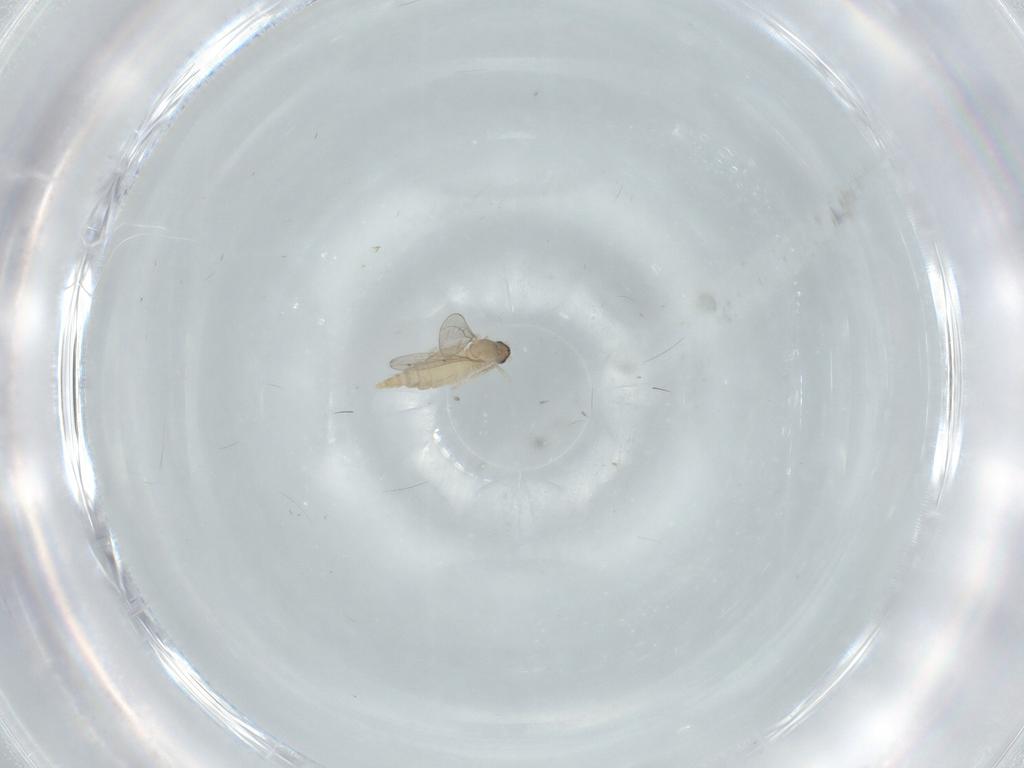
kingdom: Animalia
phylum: Arthropoda
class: Insecta
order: Diptera
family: Cecidomyiidae
